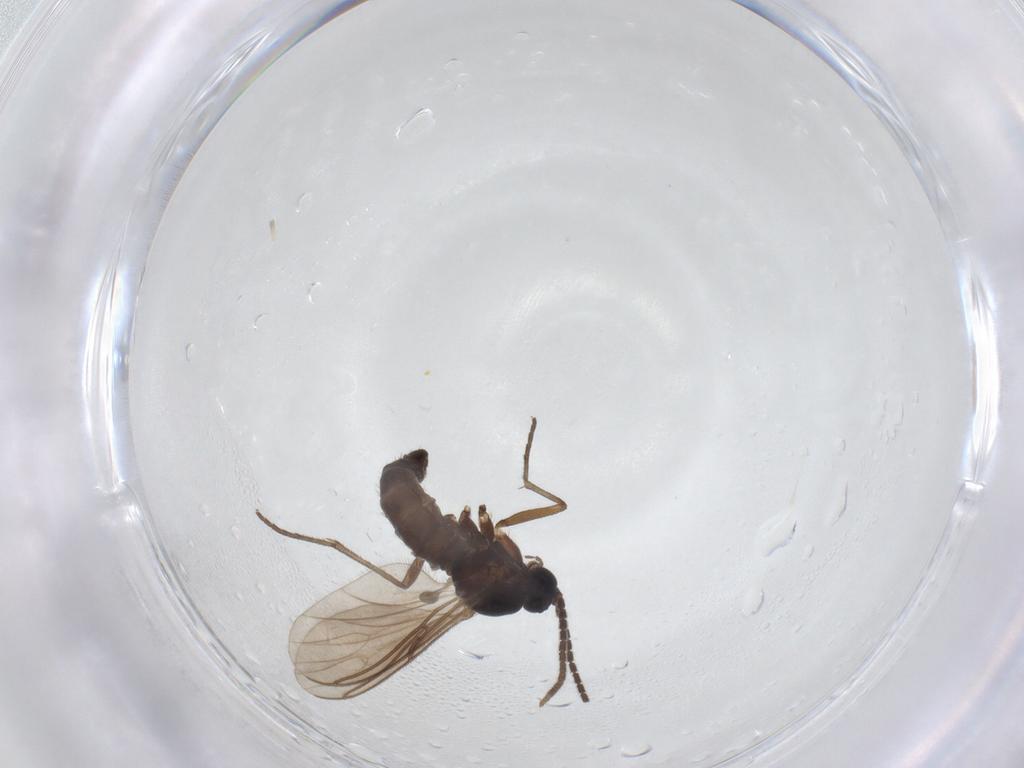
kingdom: Animalia
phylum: Arthropoda
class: Insecta
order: Diptera
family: Sciaridae
